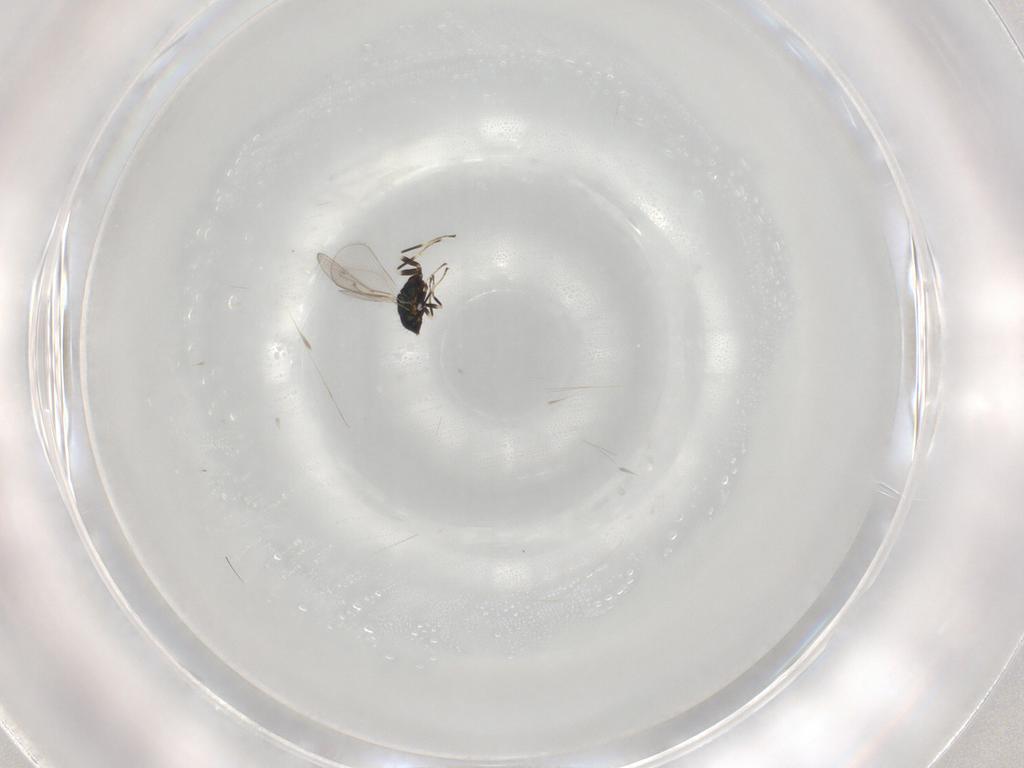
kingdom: Animalia
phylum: Arthropoda
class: Insecta
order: Hymenoptera
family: Eulophidae
